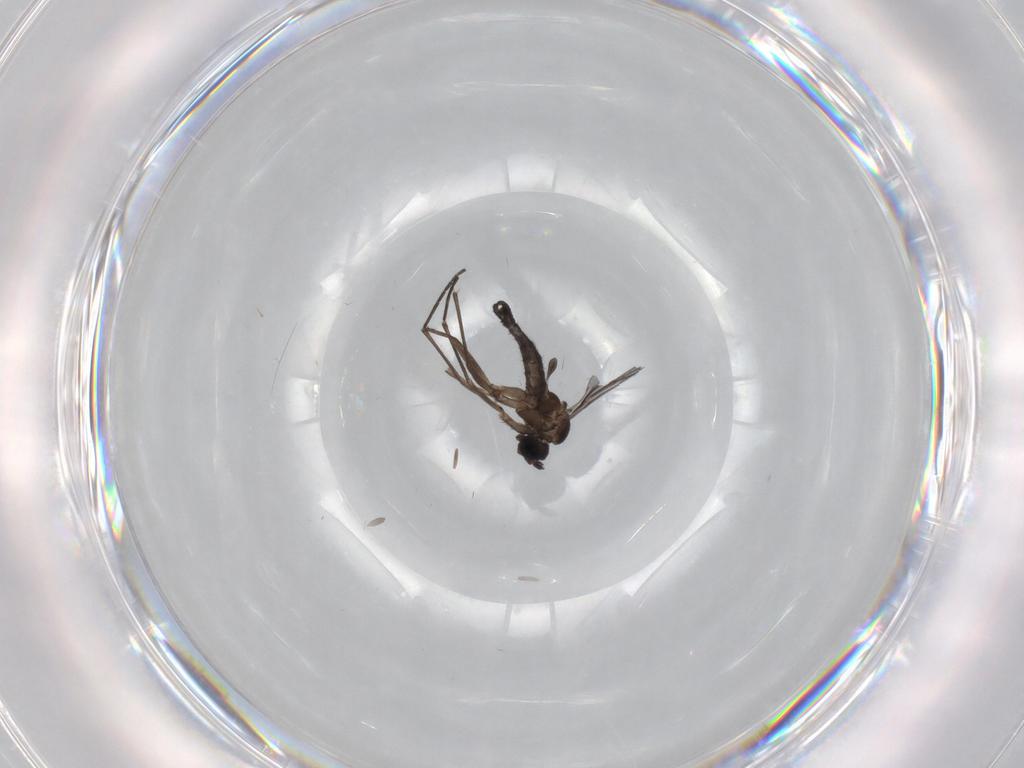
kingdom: Animalia
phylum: Arthropoda
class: Insecta
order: Diptera
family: Sciaridae
